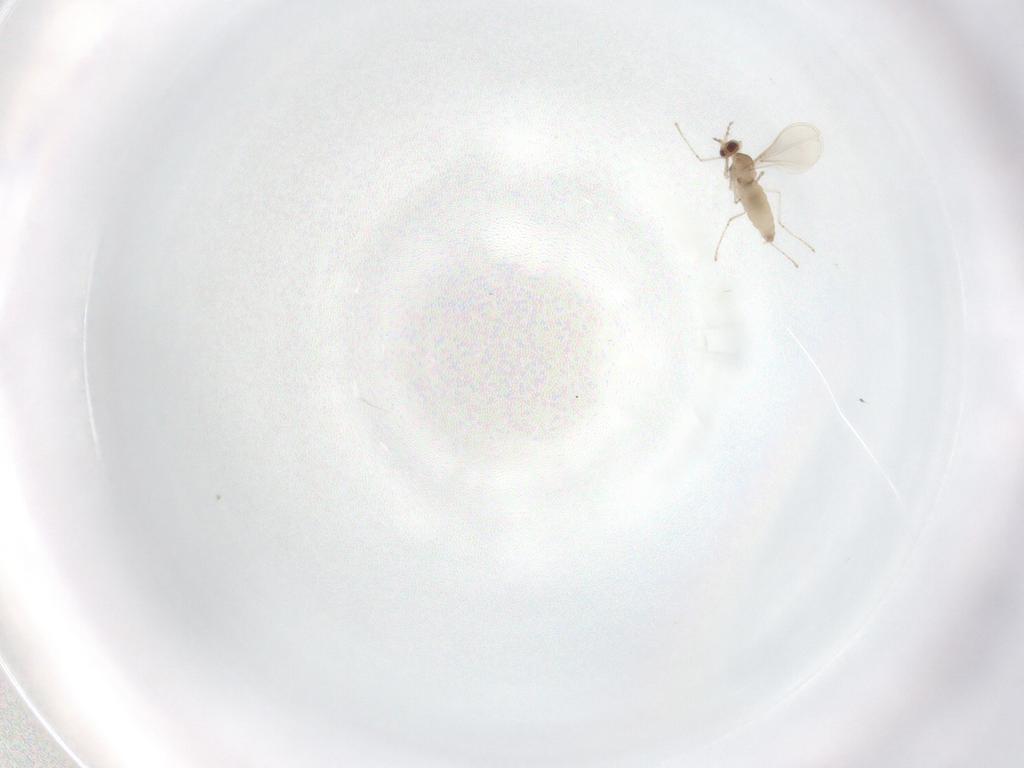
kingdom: Animalia
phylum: Arthropoda
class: Insecta
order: Diptera
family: Cecidomyiidae
